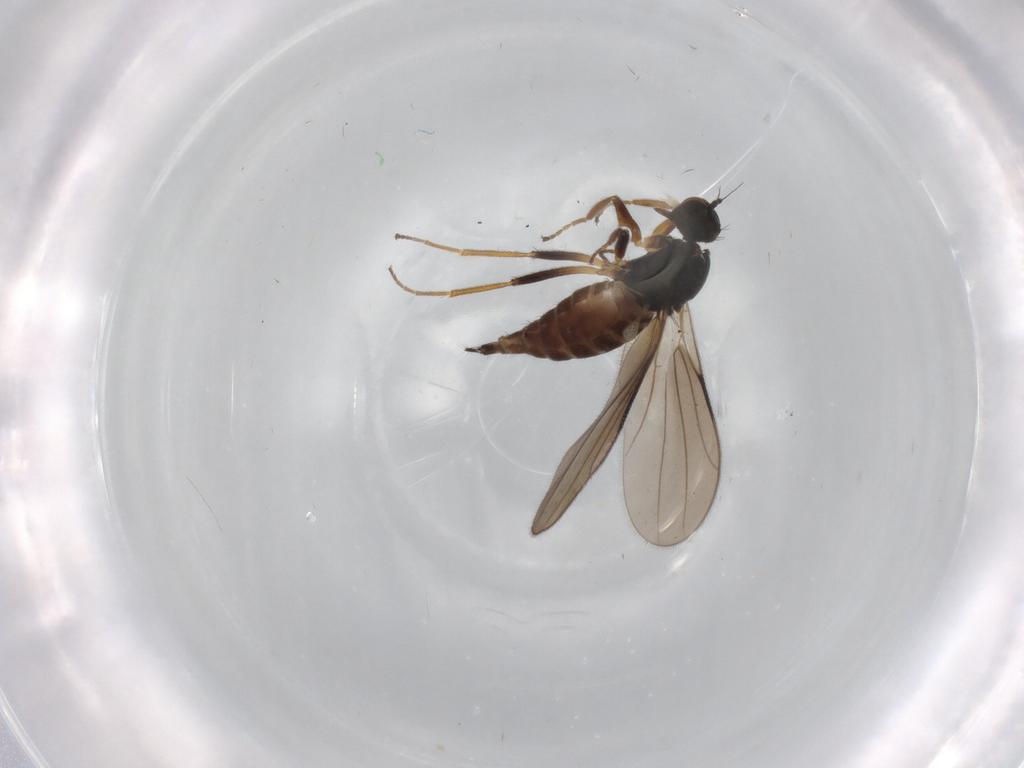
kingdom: Animalia
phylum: Arthropoda
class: Insecta
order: Diptera
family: Hybotidae
